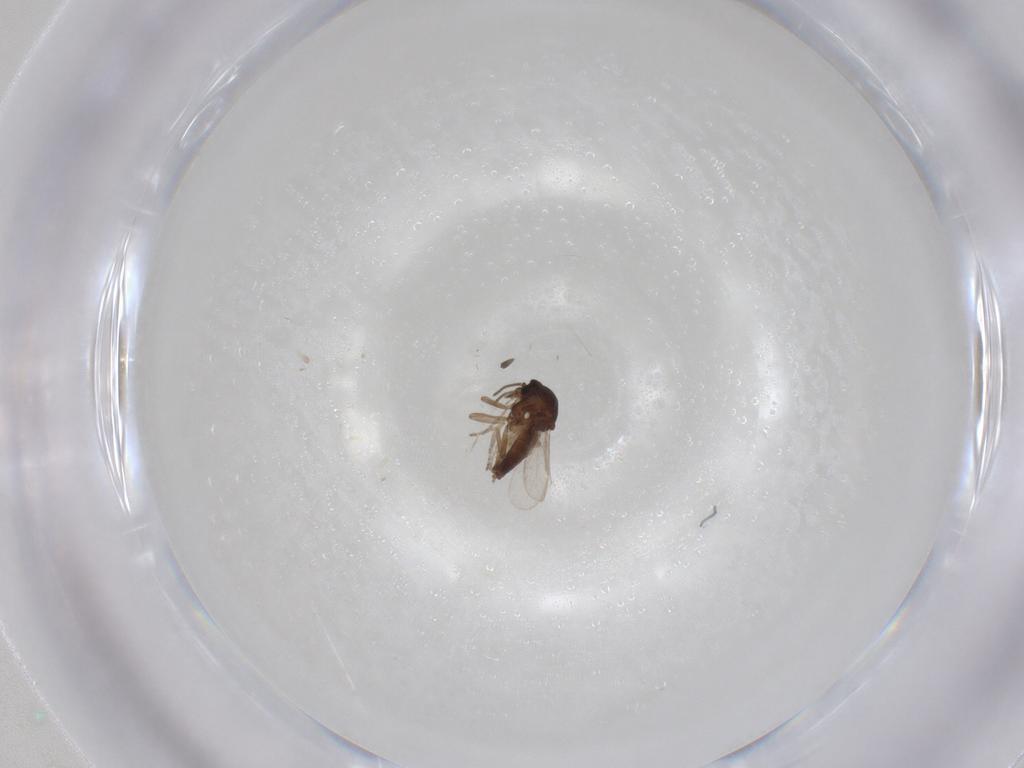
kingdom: Animalia
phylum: Arthropoda
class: Insecta
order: Diptera
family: Ceratopogonidae
